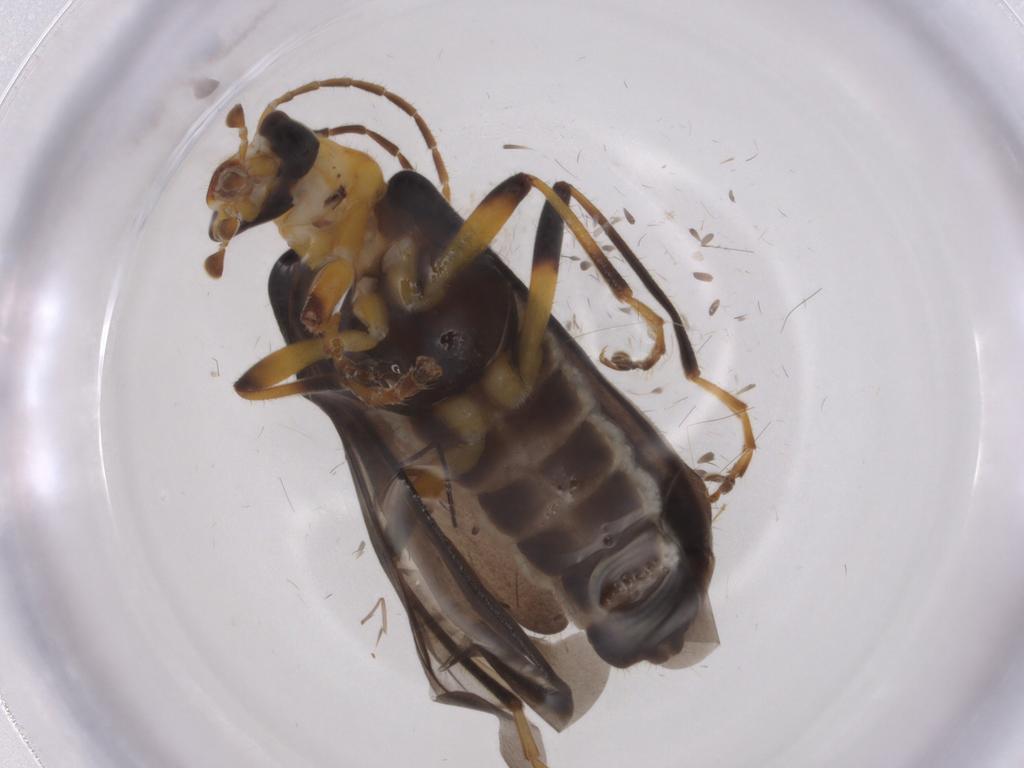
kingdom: Animalia
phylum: Arthropoda
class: Insecta
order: Coleoptera
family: Cantharidae
